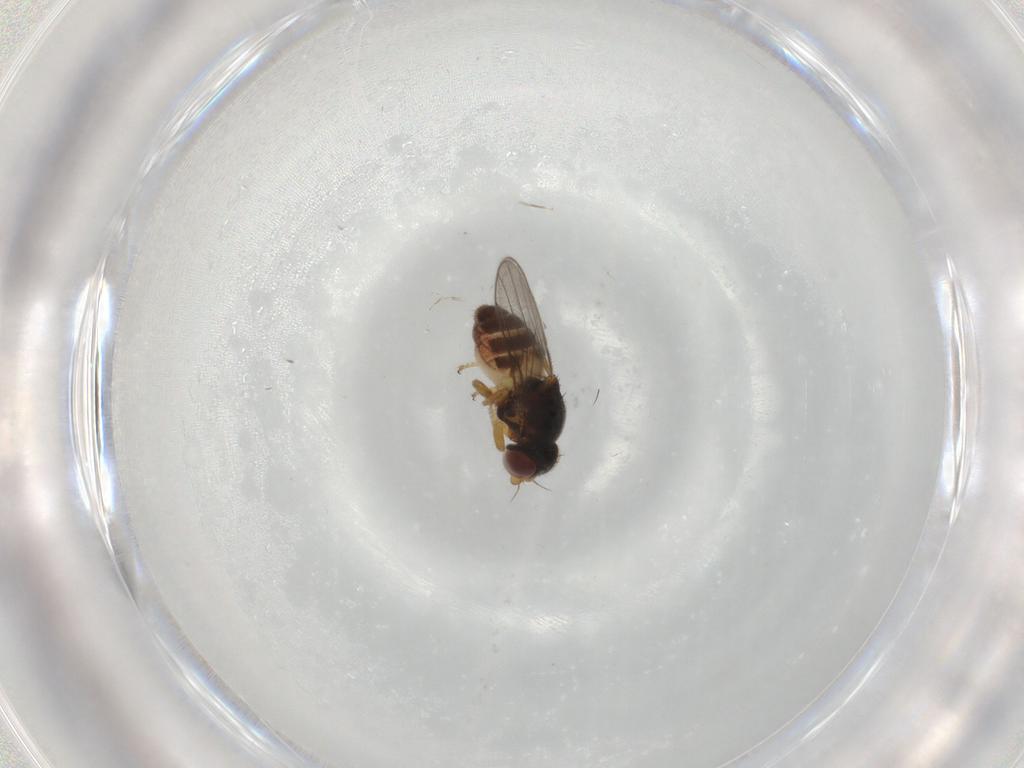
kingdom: Animalia
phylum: Arthropoda
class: Insecta
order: Diptera
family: Chloropidae
